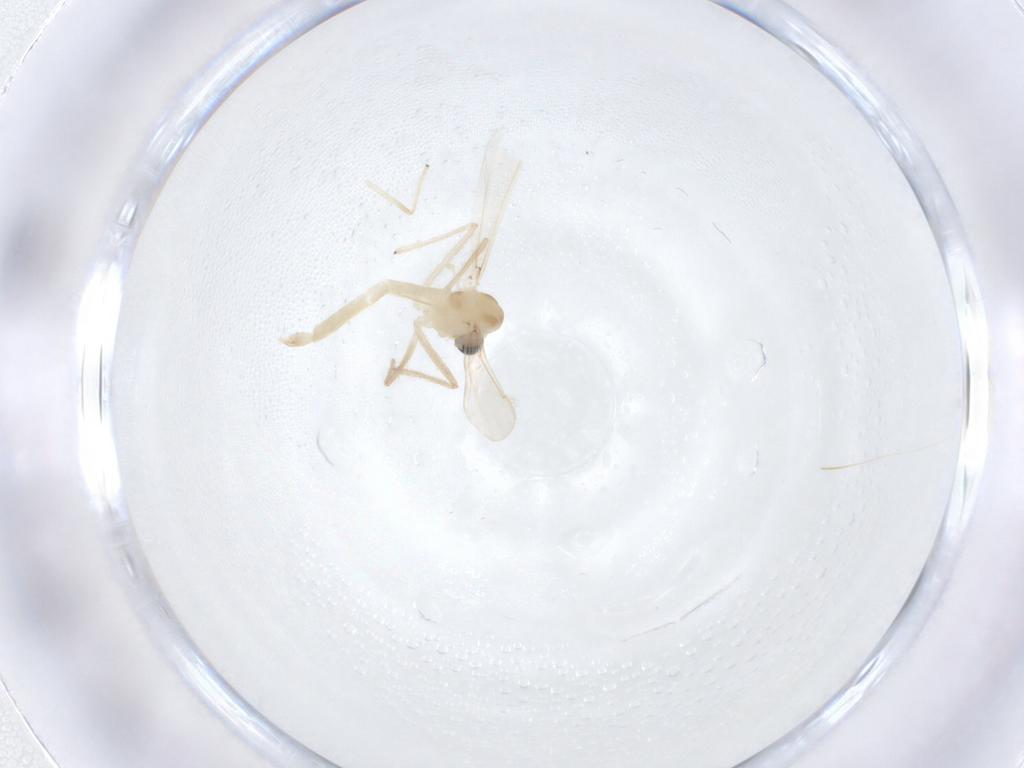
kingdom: Animalia
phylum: Arthropoda
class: Insecta
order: Diptera
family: Chironomidae
